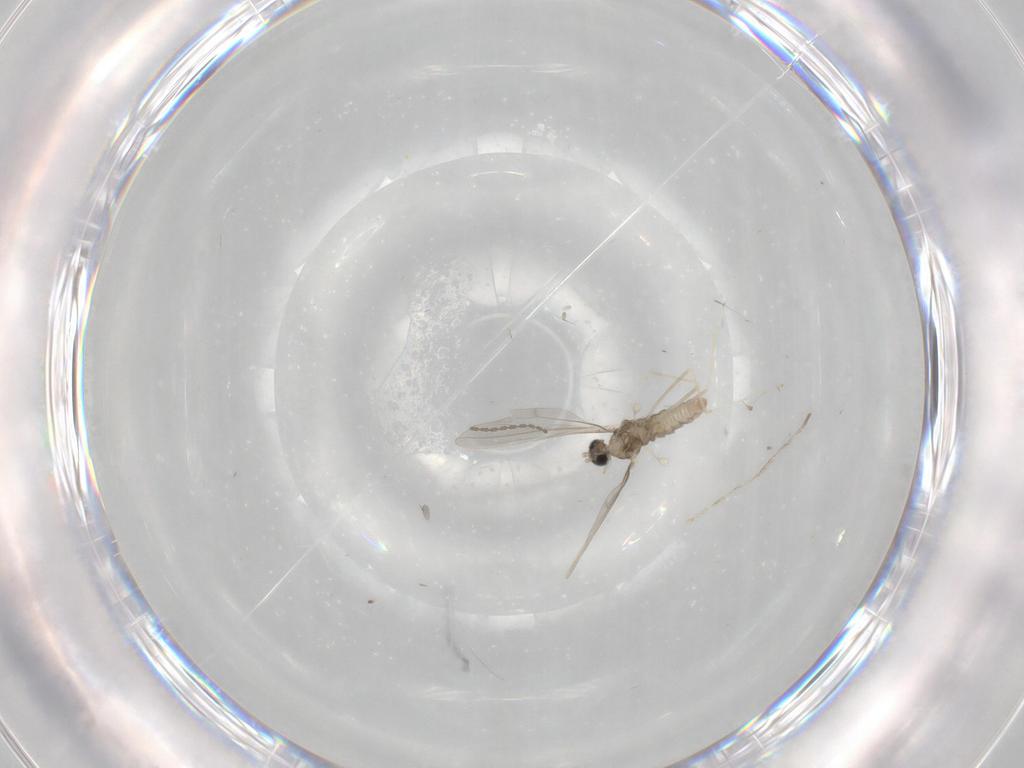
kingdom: Animalia
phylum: Arthropoda
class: Insecta
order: Diptera
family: Cecidomyiidae
